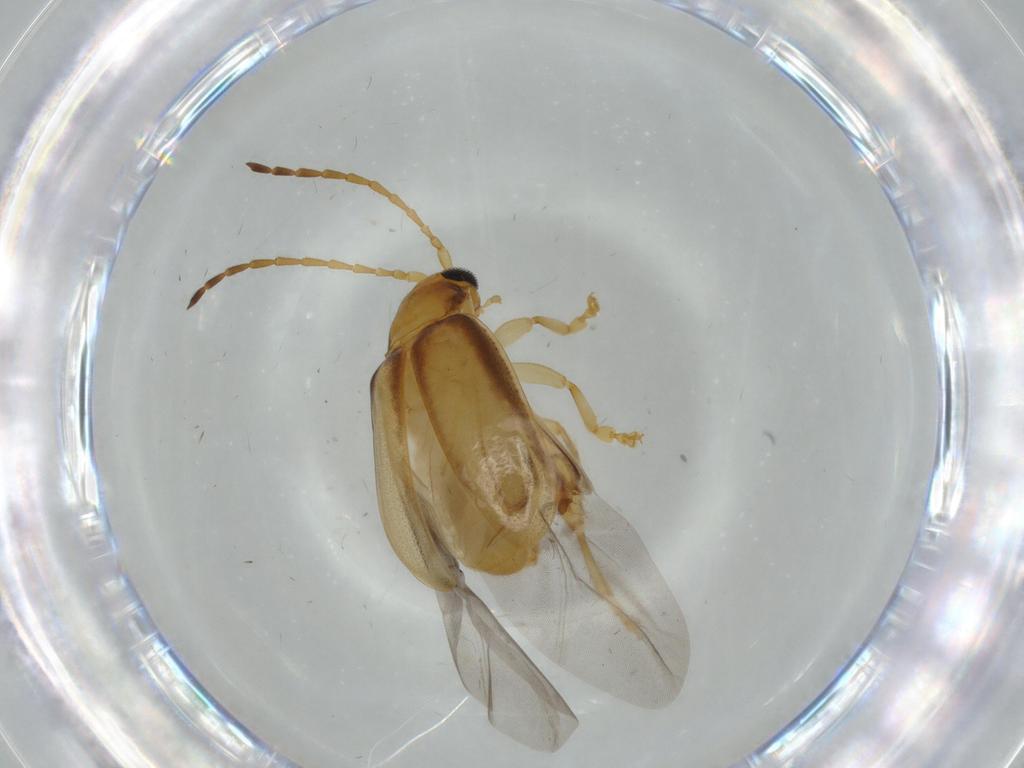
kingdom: Animalia
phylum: Arthropoda
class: Insecta
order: Coleoptera
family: Chrysomelidae
